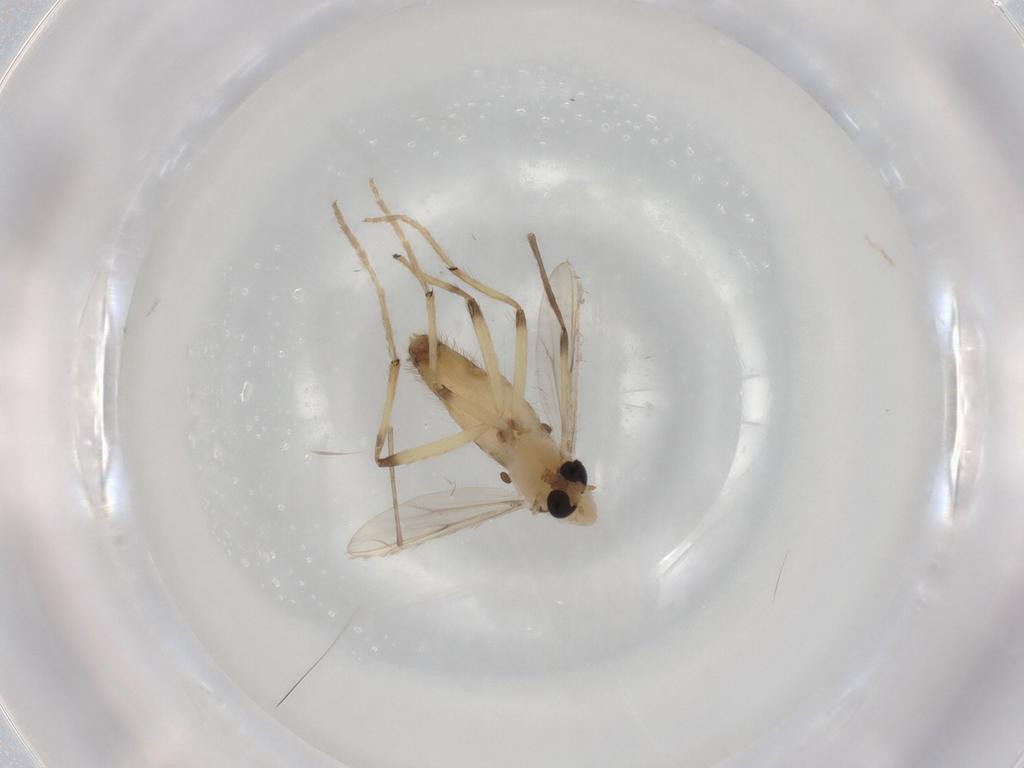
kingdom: Animalia
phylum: Arthropoda
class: Insecta
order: Diptera
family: Chironomidae
